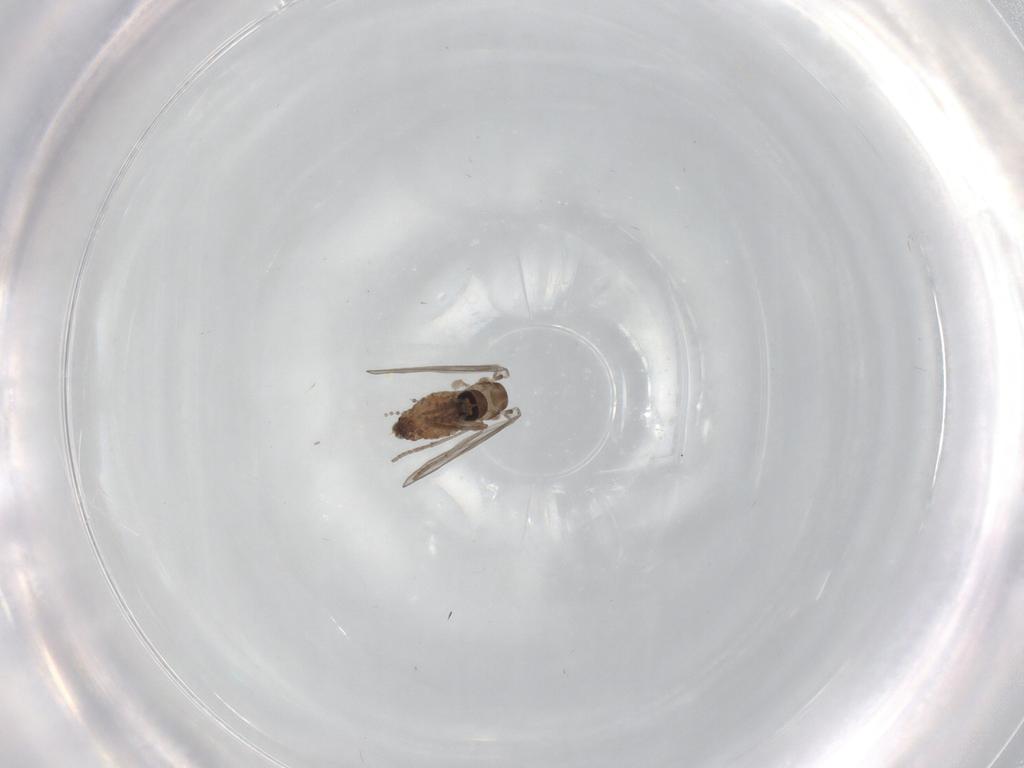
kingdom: Animalia
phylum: Arthropoda
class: Insecta
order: Diptera
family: Psychodidae
